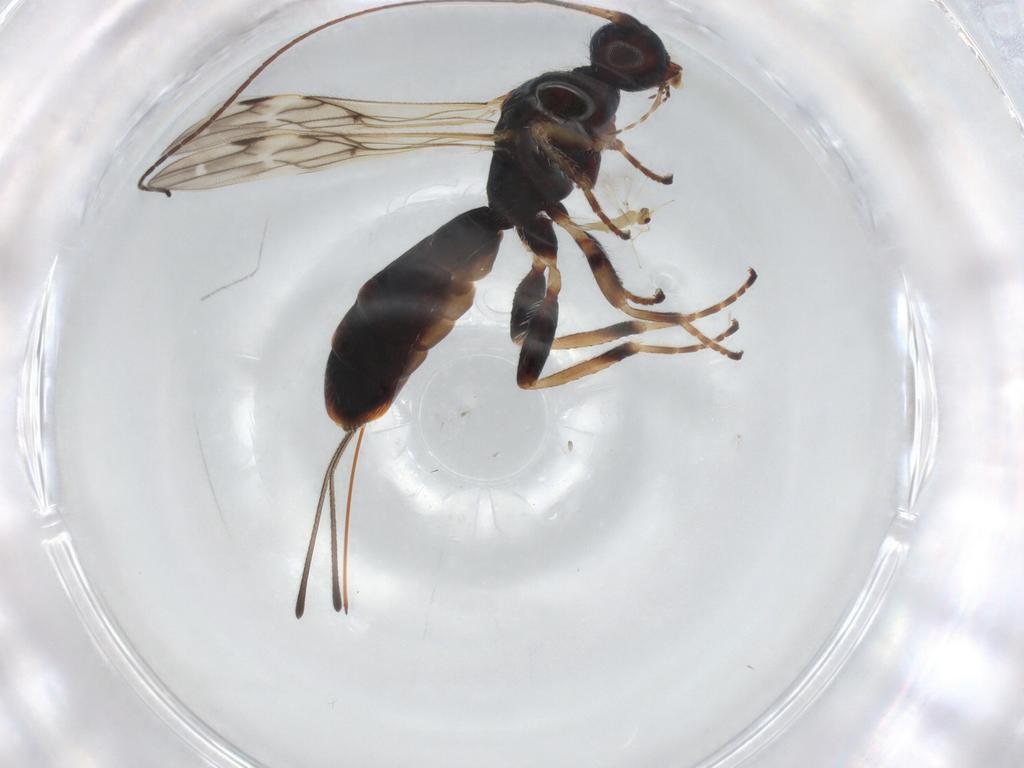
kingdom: Animalia
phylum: Arthropoda
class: Insecta
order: Hymenoptera
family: Braconidae
